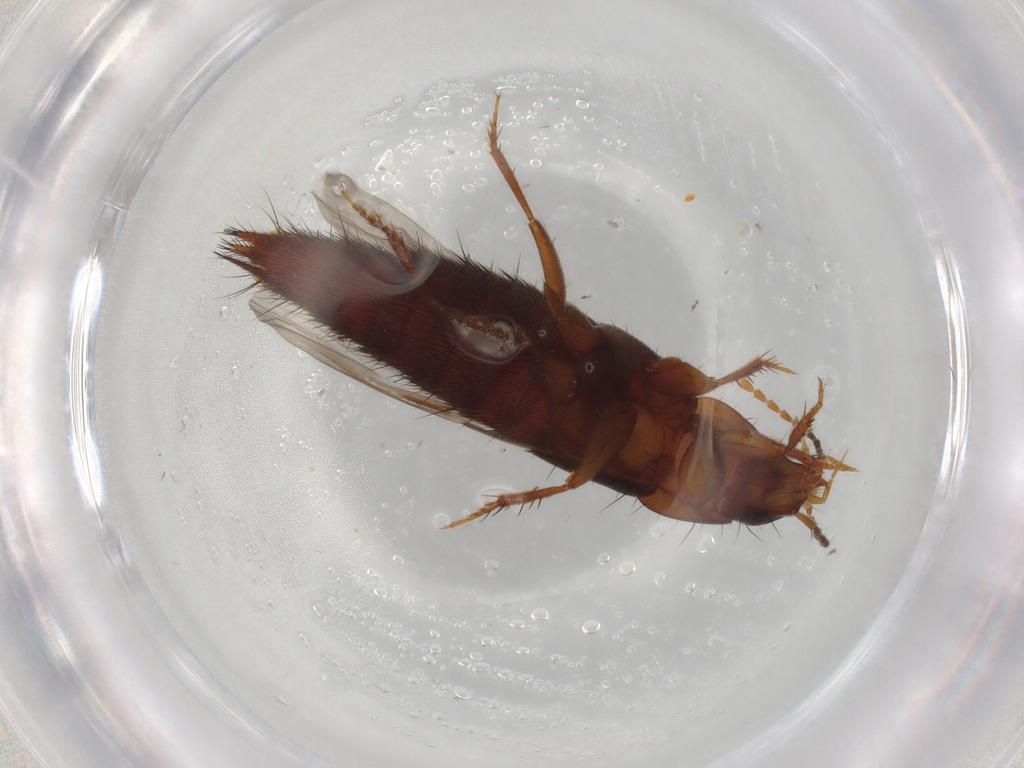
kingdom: Animalia
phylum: Arthropoda
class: Insecta
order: Coleoptera
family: Staphylinidae
